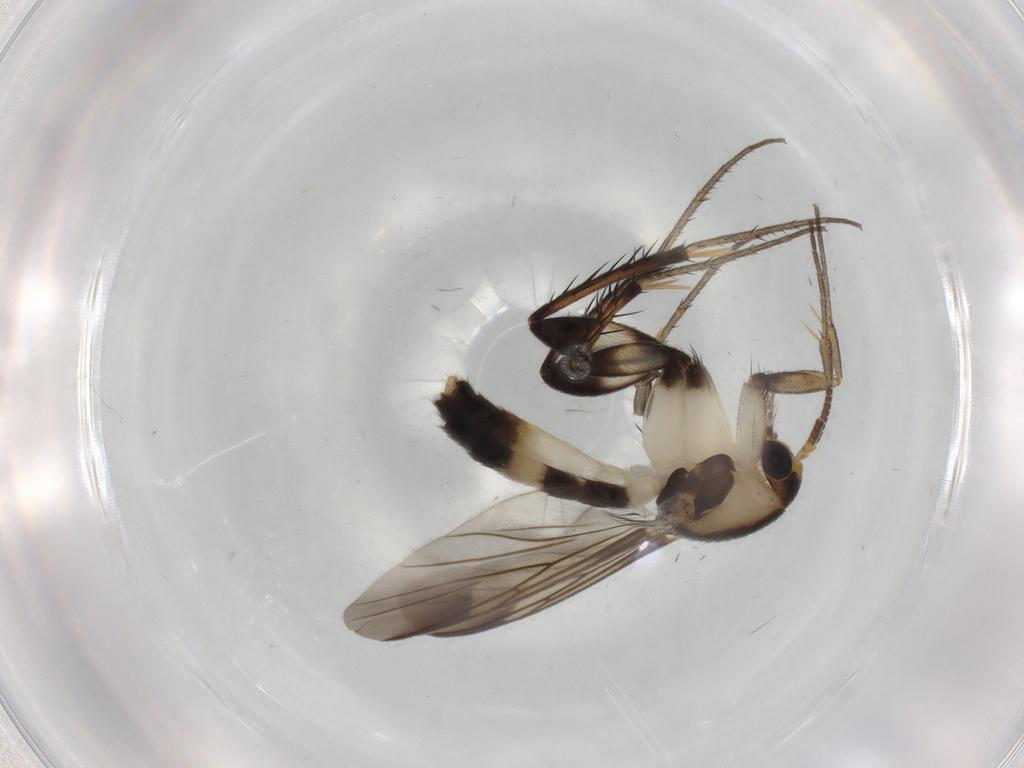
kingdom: Animalia
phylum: Arthropoda
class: Insecta
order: Diptera
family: Mycetophilidae
